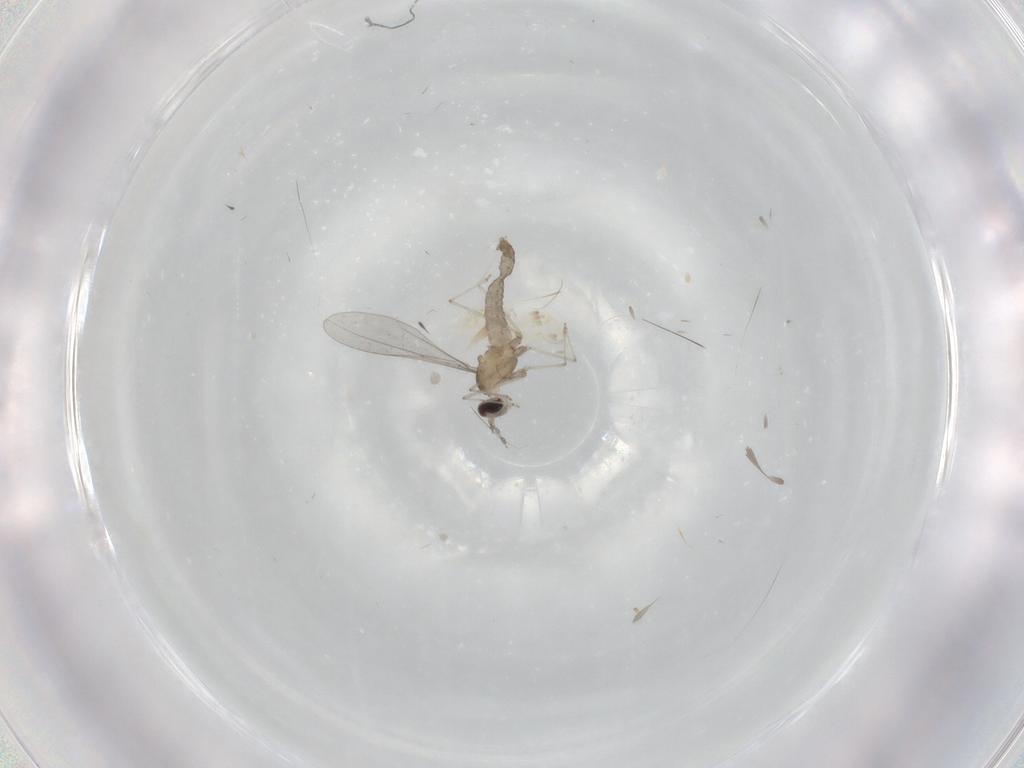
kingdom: Animalia
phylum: Arthropoda
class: Insecta
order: Diptera
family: Cecidomyiidae
